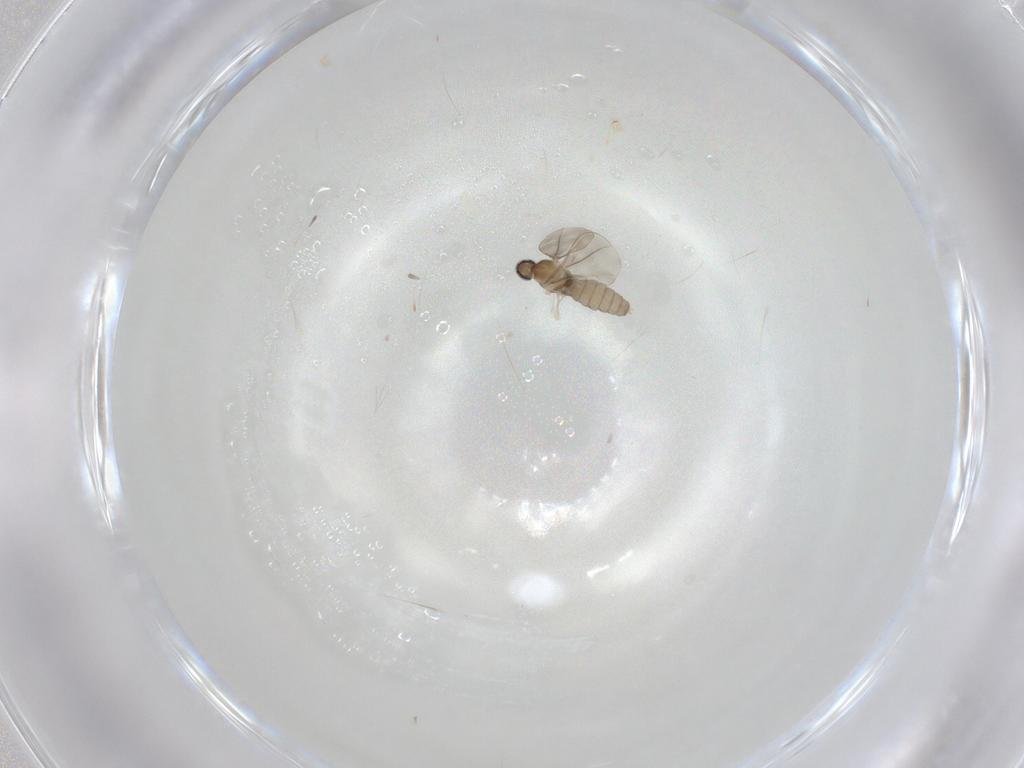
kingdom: Animalia
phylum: Arthropoda
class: Insecta
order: Diptera
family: Cecidomyiidae
